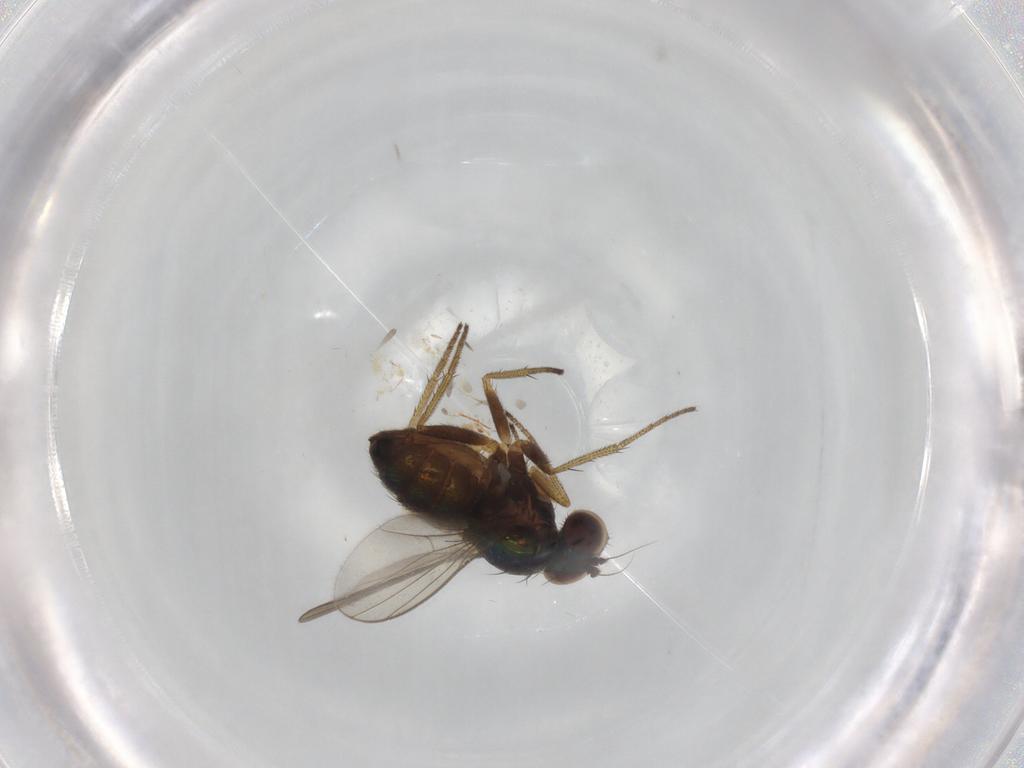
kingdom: Animalia
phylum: Arthropoda
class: Insecta
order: Diptera
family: Dolichopodidae
